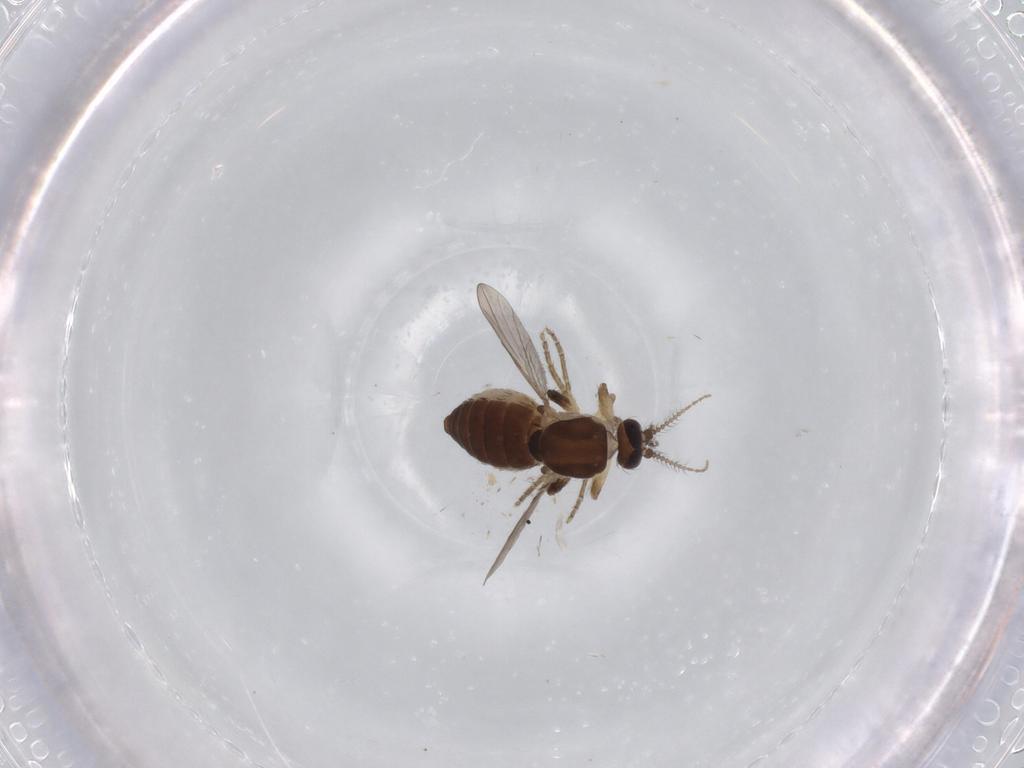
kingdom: Animalia
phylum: Arthropoda
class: Insecta
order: Diptera
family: Ceratopogonidae
